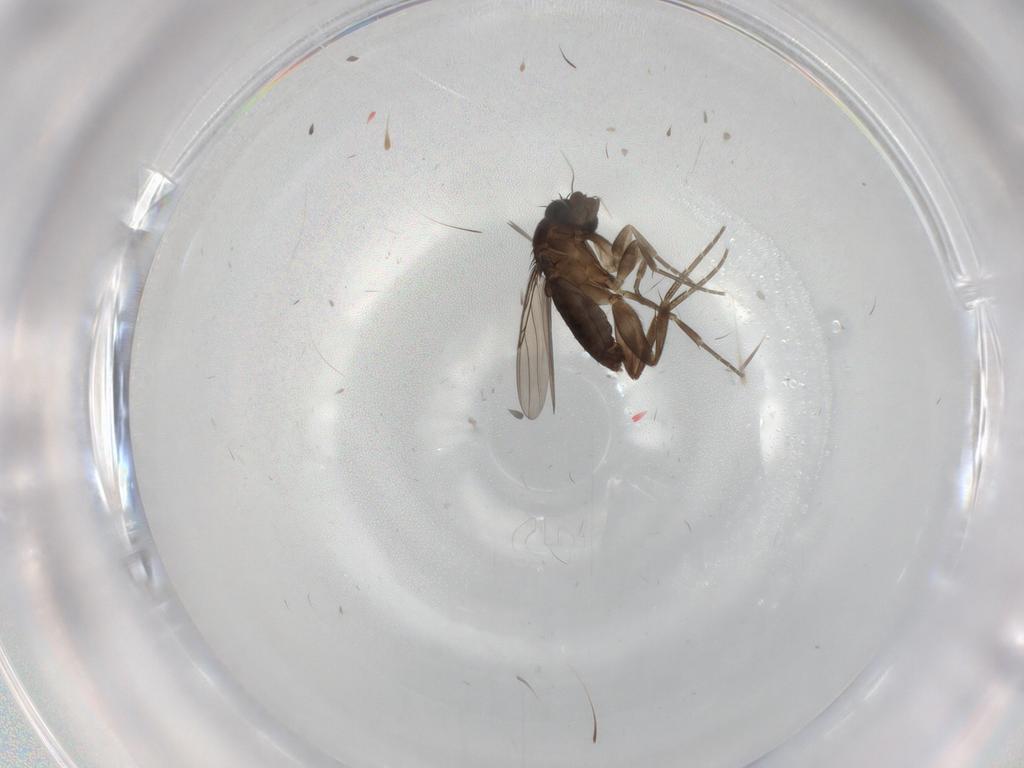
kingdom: Animalia
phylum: Arthropoda
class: Insecta
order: Diptera
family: Phoridae
